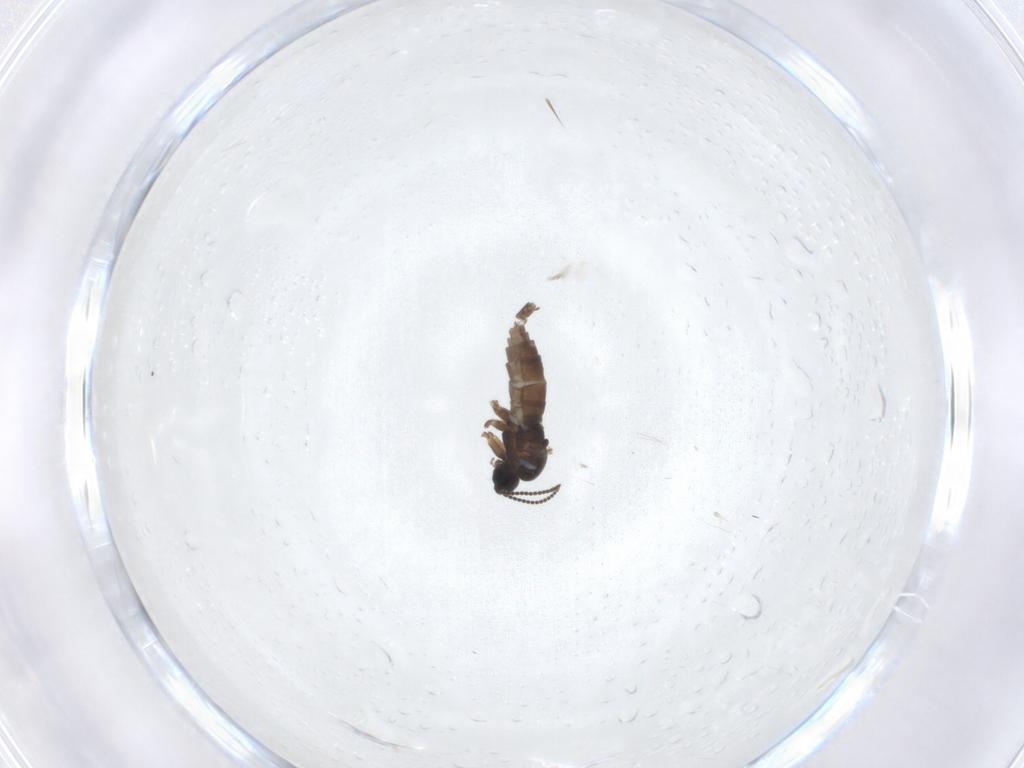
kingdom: Animalia
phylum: Arthropoda
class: Insecta
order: Diptera
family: Sciaridae
